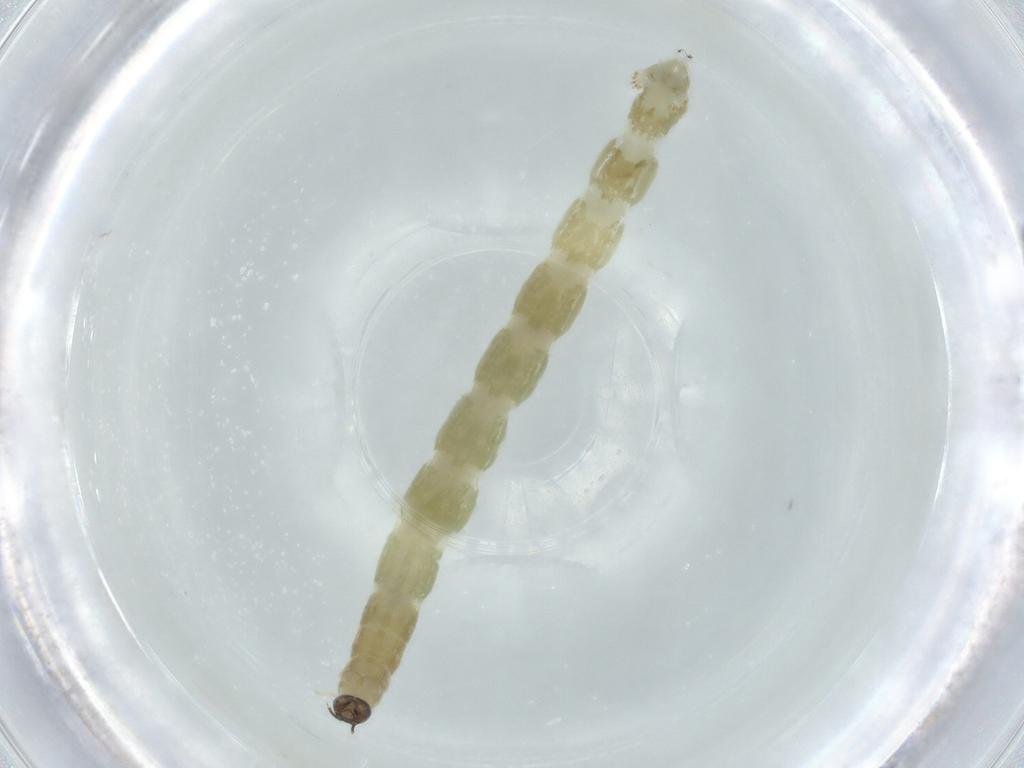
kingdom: Animalia
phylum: Arthropoda
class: Insecta
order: Diptera
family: Chironomidae
